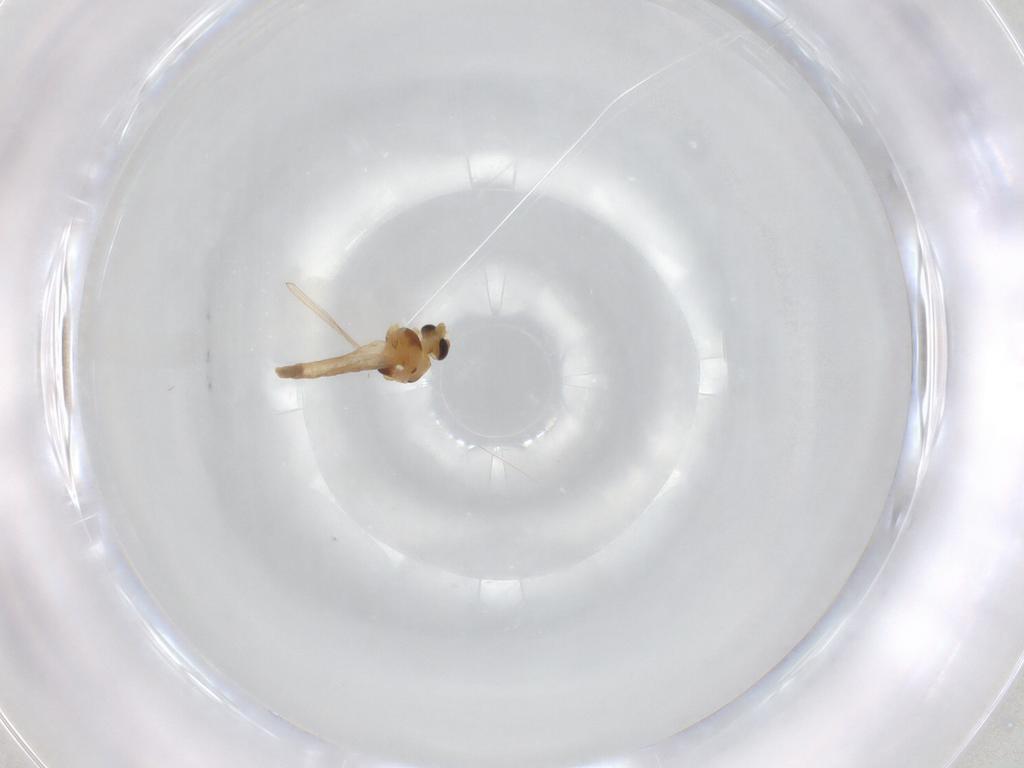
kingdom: Animalia
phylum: Arthropoda
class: Insecta
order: Diptera
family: Chironomidae
